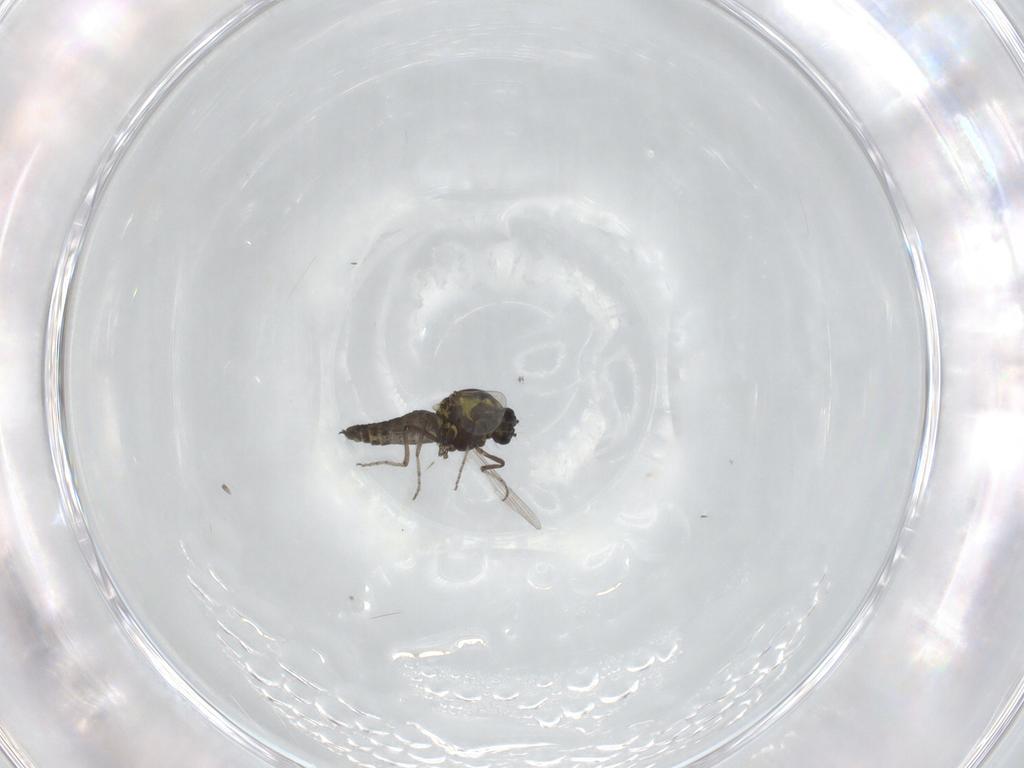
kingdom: Animalia
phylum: Arthropoda
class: Insecta
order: Diptera
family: Ceratopogonidae
